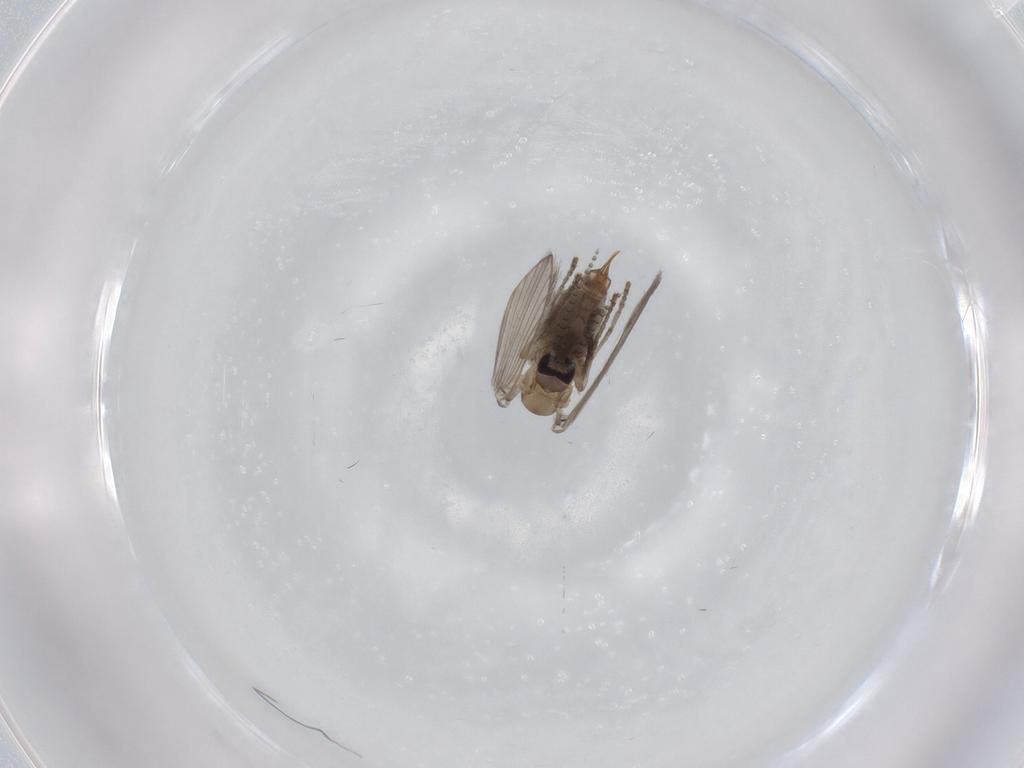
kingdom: Animalia
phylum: Arthropoda
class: Insecta
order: Diptera
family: Psychodidae
